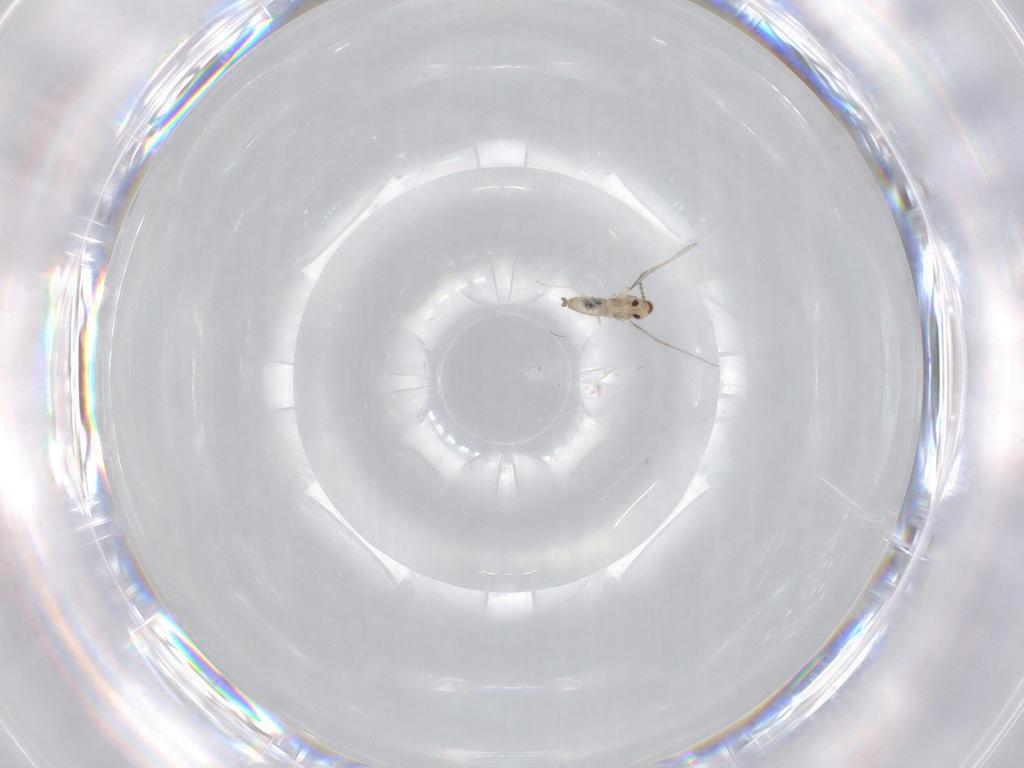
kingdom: Animalia
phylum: Arthropoda
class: Insecta
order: Diptera
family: Cecidomyiidae
